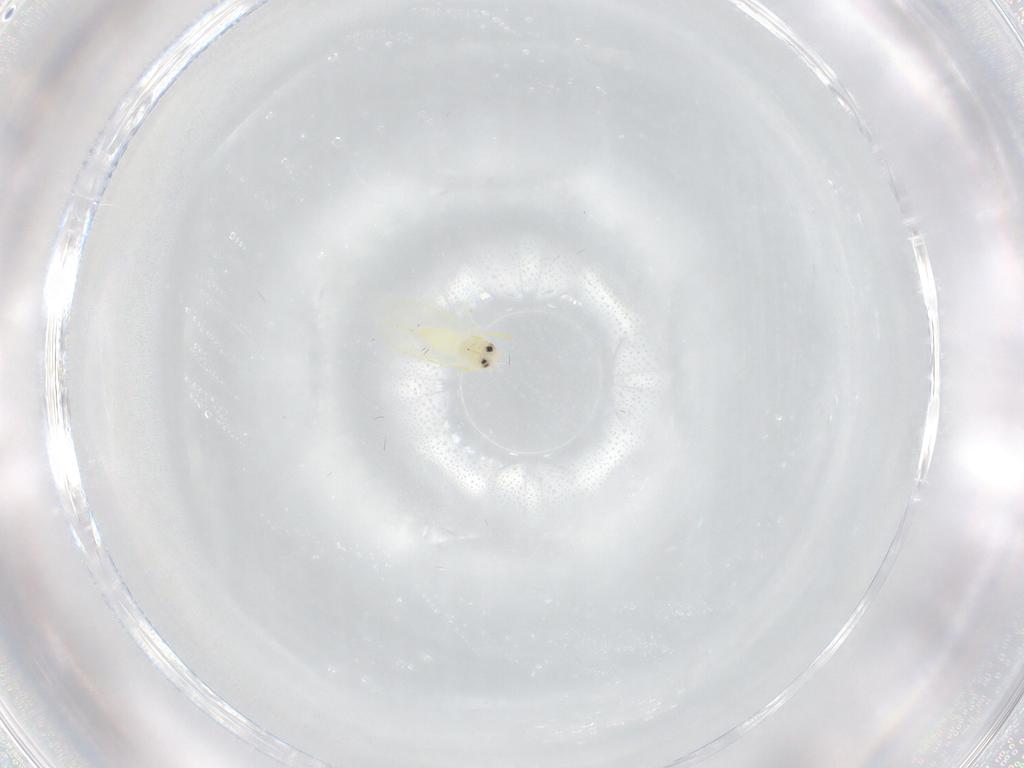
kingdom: Animalia
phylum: Arthropoda
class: Insecta
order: Hemiptera
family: Aleyrodidae
